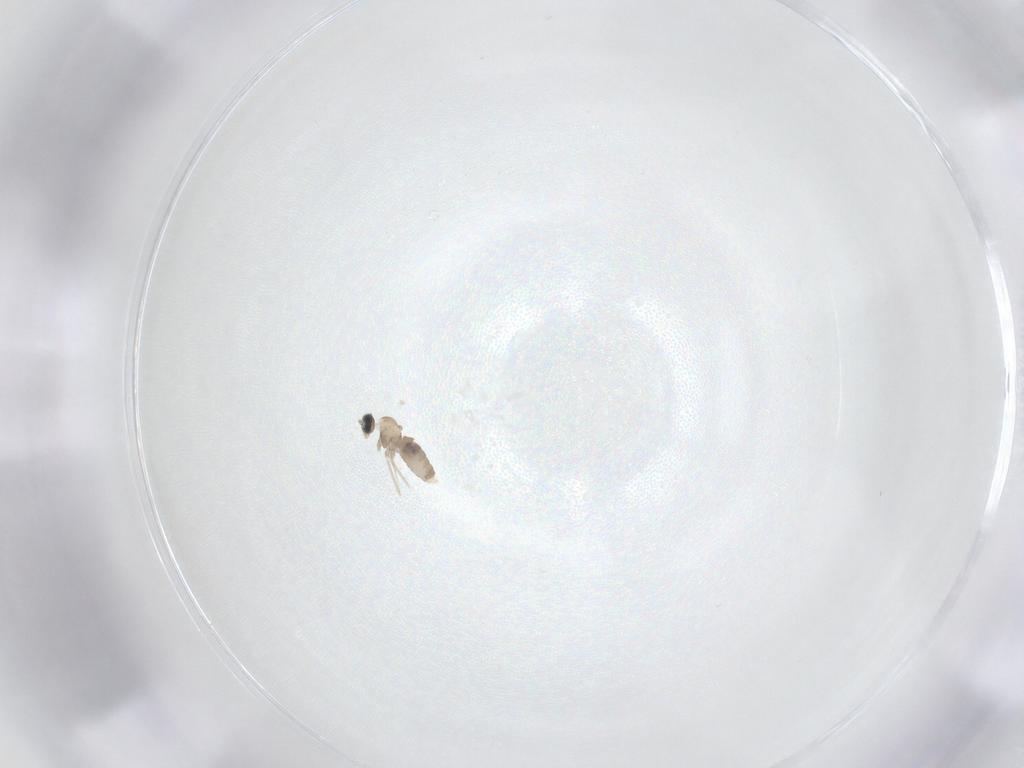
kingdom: Animalia
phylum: Arthropoda
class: Insecta
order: Diptera
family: Cecidomyiidae
